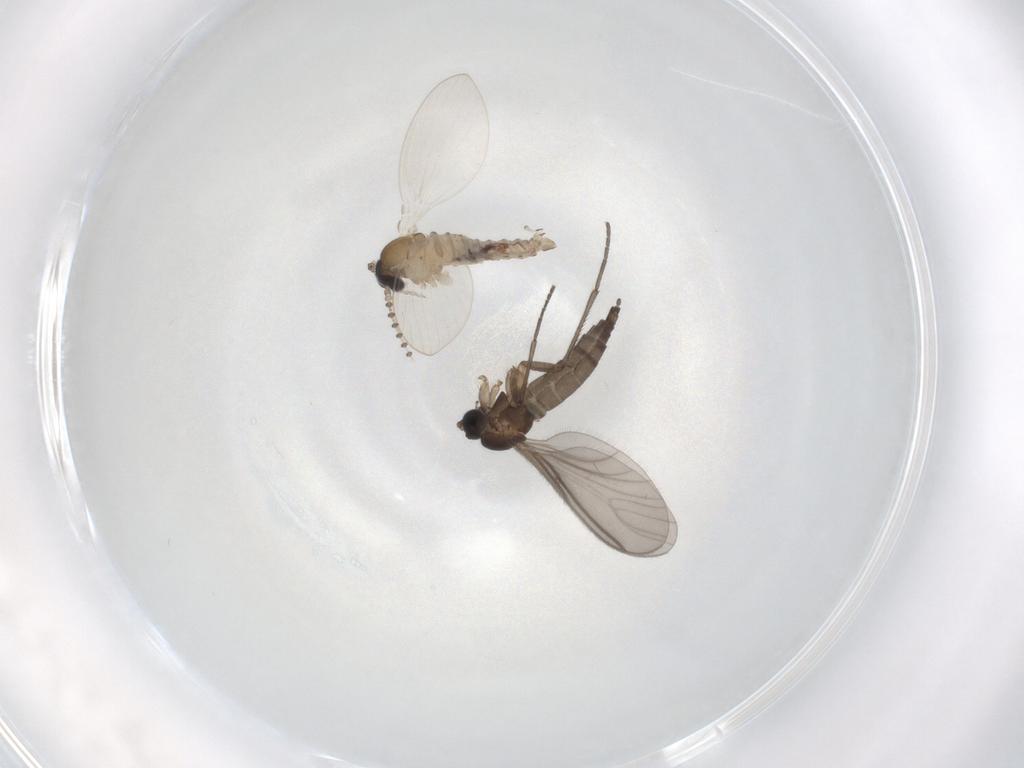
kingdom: Animalia
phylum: Arthropoda
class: Insecta
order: Diptera
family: Psychodidae
